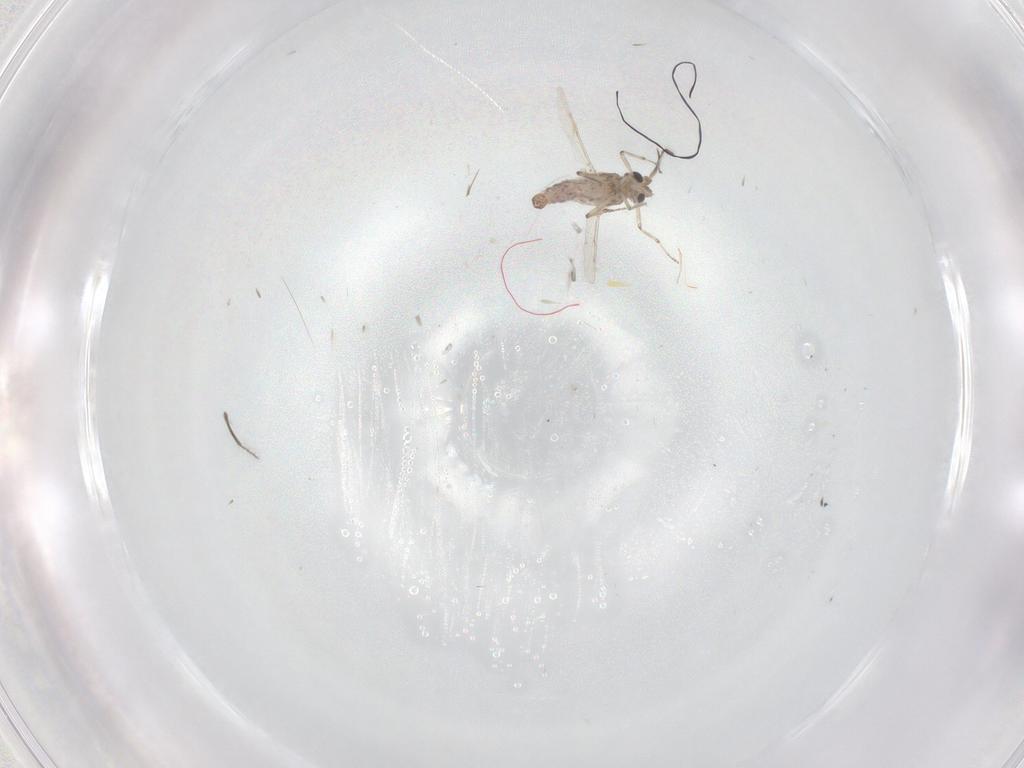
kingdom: Animalia
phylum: Arthropoda
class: Insecta
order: Diptera
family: Ceratopogonidae
